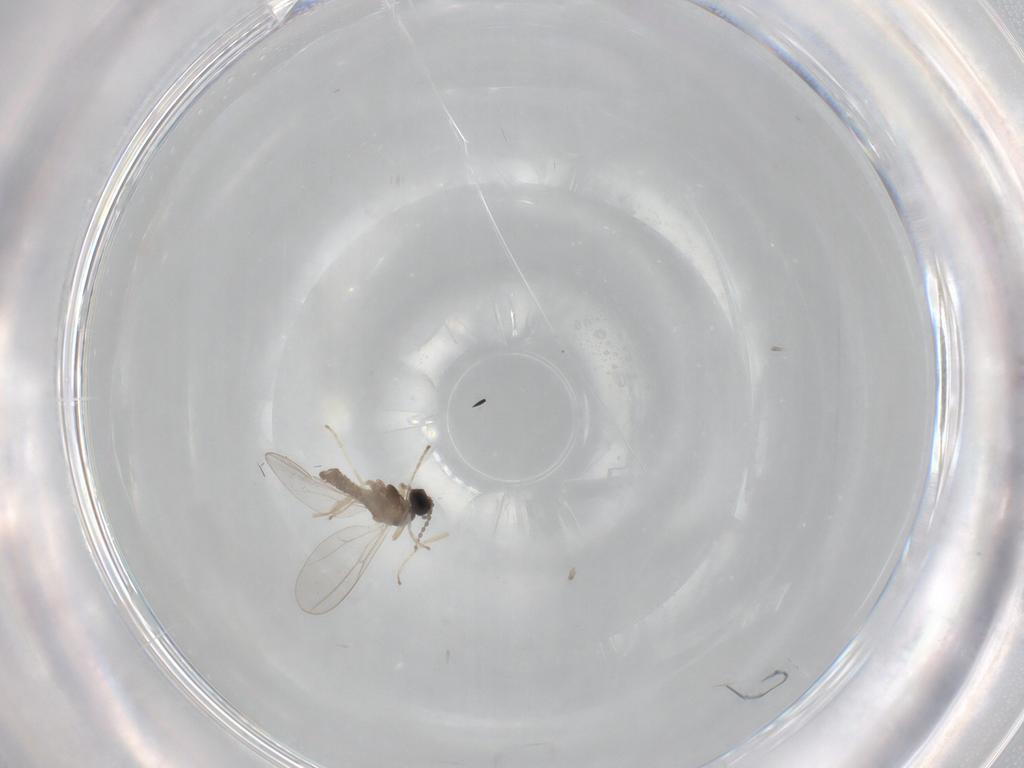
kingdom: Animalia
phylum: Arthropoda
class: Insecta
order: Diptera
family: Cecidomyiidae
